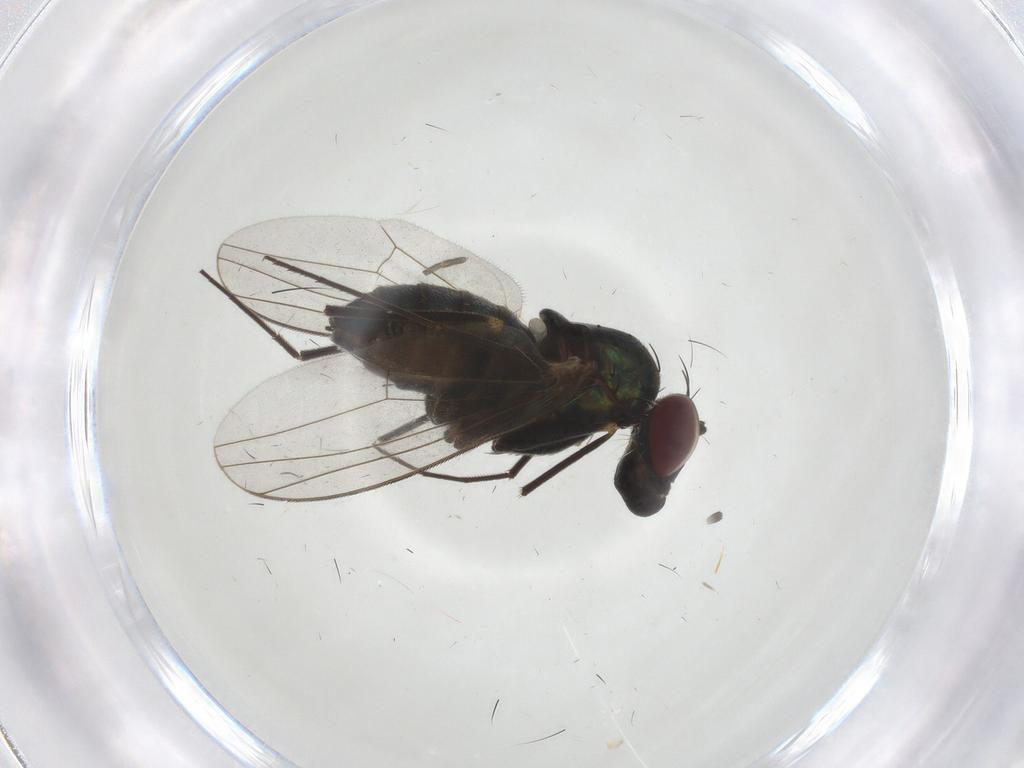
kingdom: Animalia
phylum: Arthropoda
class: Insecta
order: Diptera
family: Dolichopodidae
